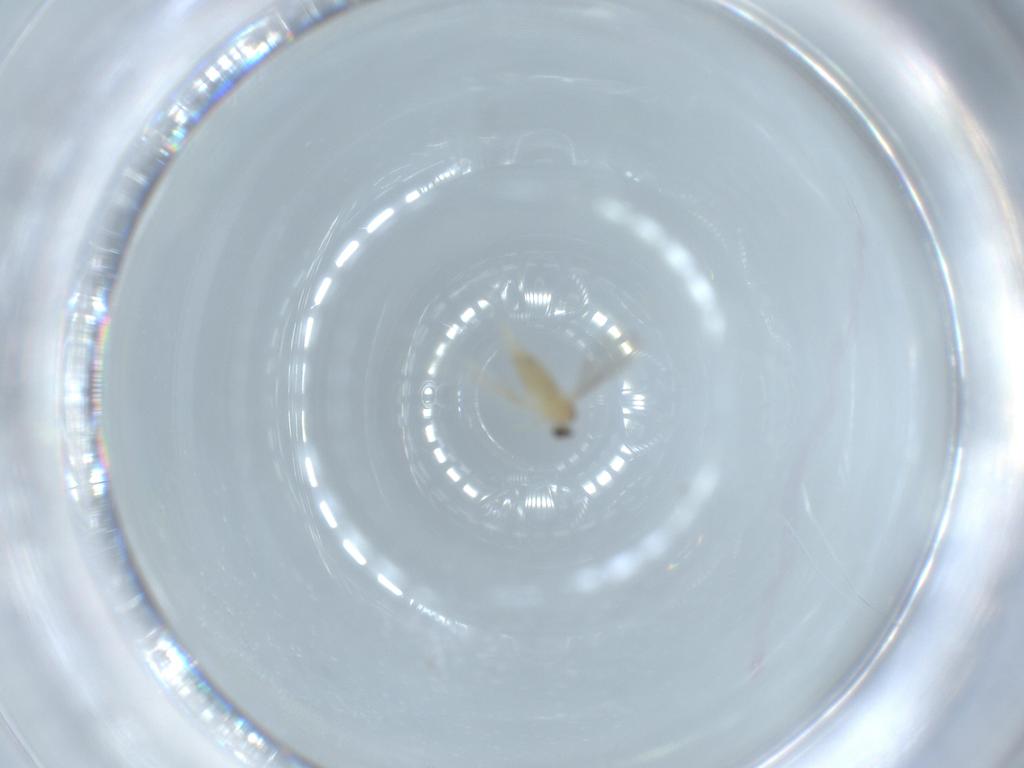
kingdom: Animalia
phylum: Arthropoda
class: Insecta
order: Diptera
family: Cecidomyiidae
